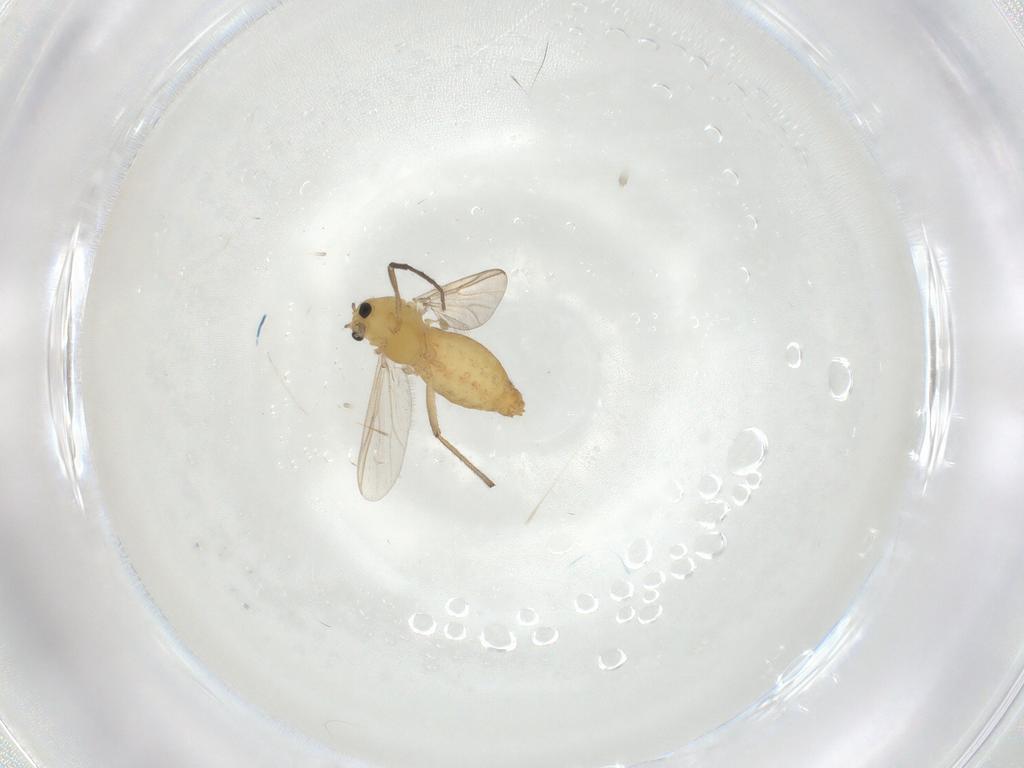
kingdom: Animalia
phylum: Arthropoda
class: Insecta
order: Diptera
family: Chironomidae
